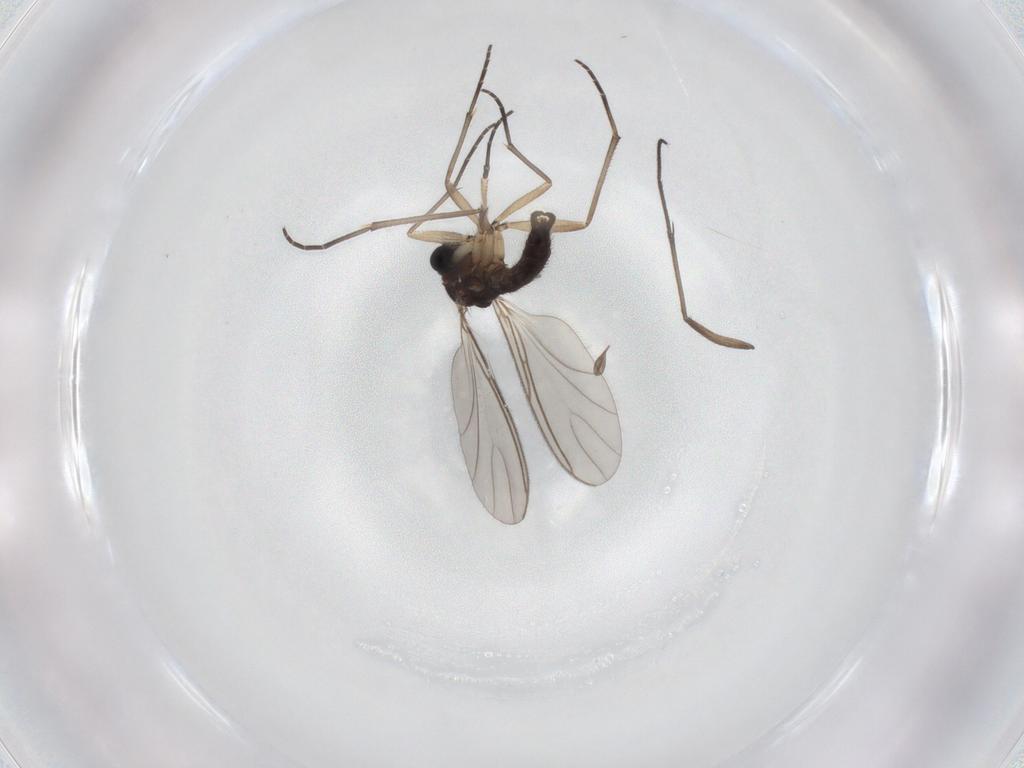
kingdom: Animalia
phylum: Arthropoda
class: Insecta
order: Diptera
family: Sciaridae
